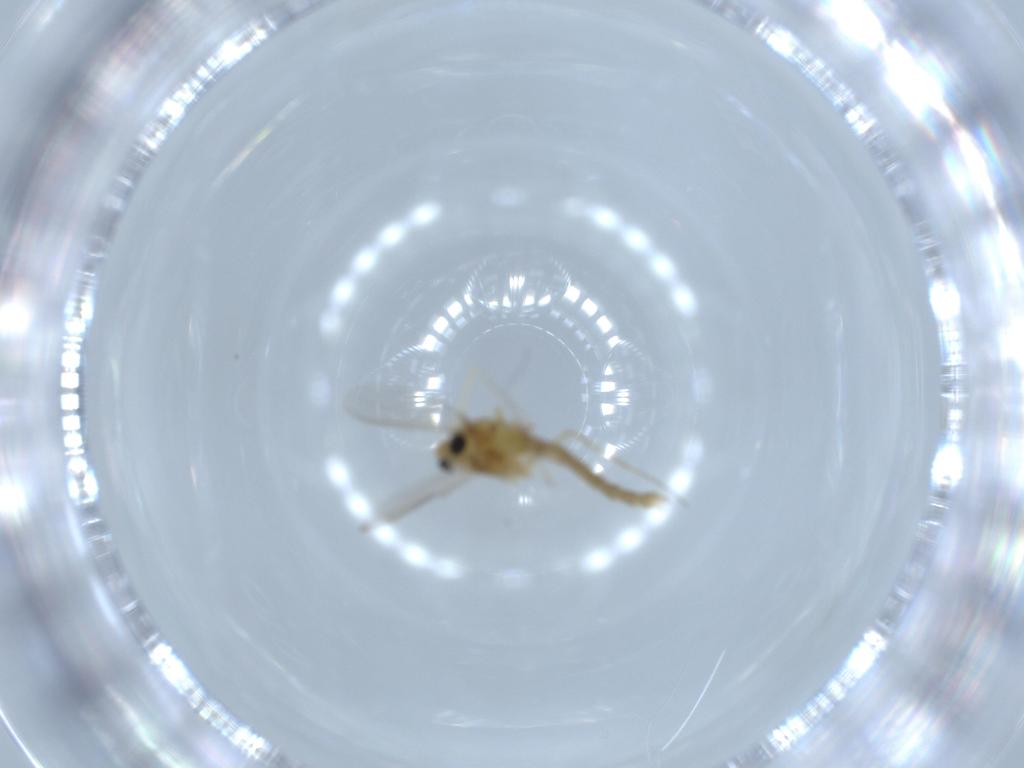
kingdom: Animalia
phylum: Arthropoda
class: Insecta
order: Diptera
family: Chironomidae
